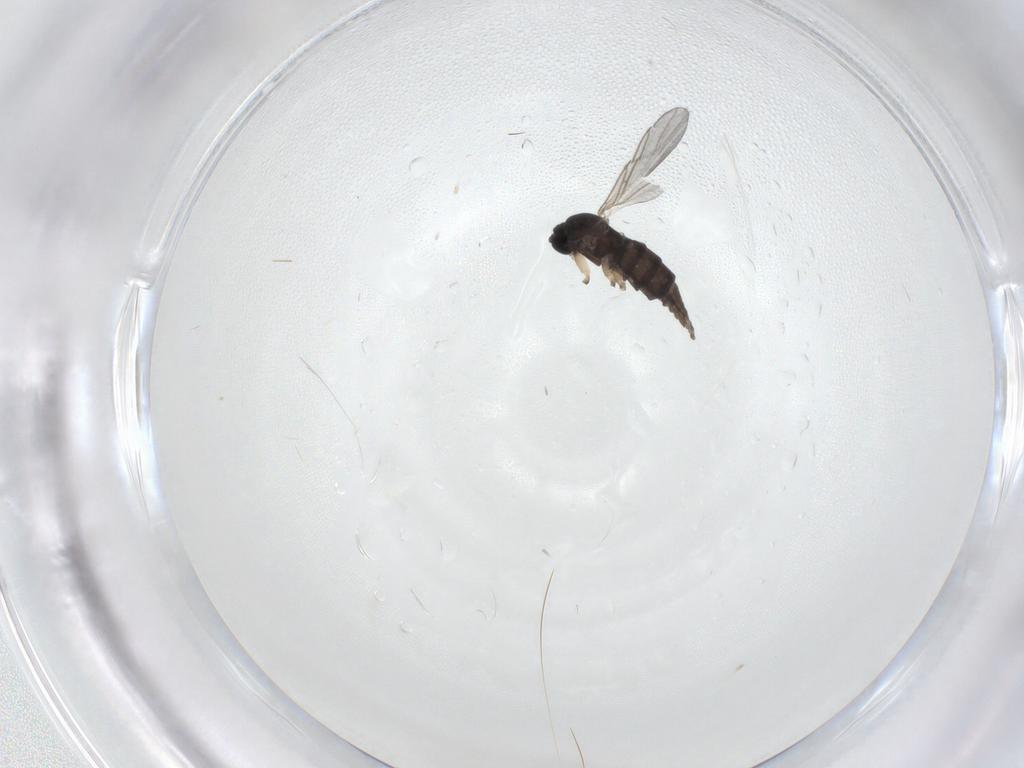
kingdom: Animalia
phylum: Arthropoda
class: Insecta
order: Diptera
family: Sciaridae
